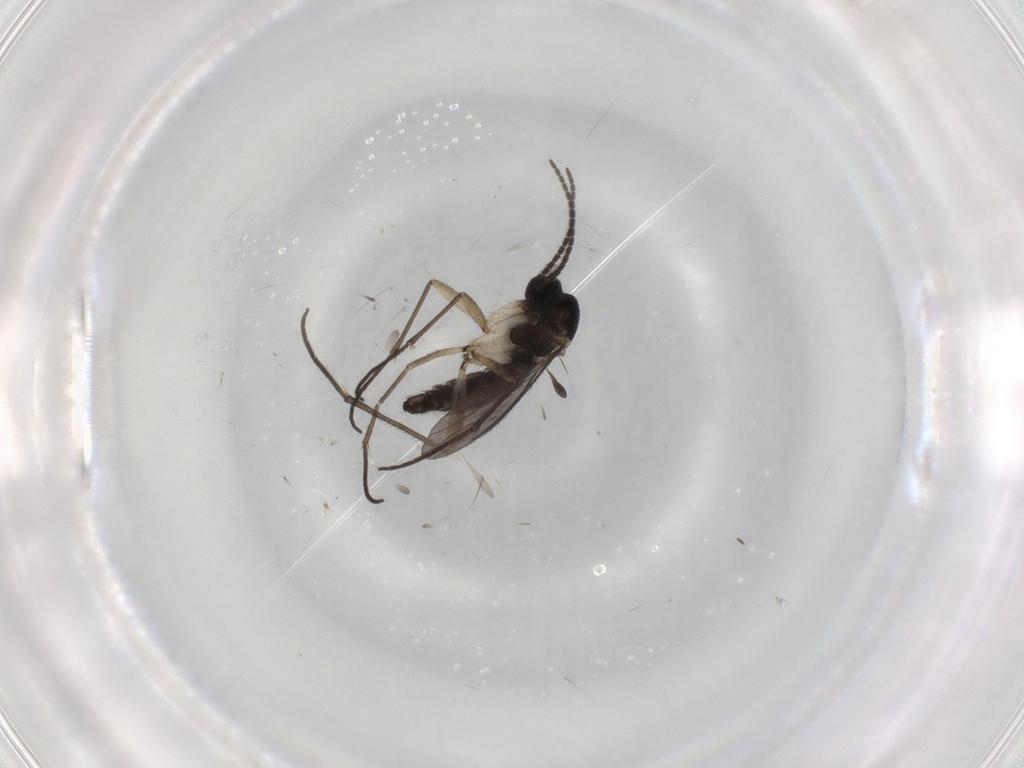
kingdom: Animalia
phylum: Arthropoda
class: Insecta
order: Diptera
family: Sciaridae
